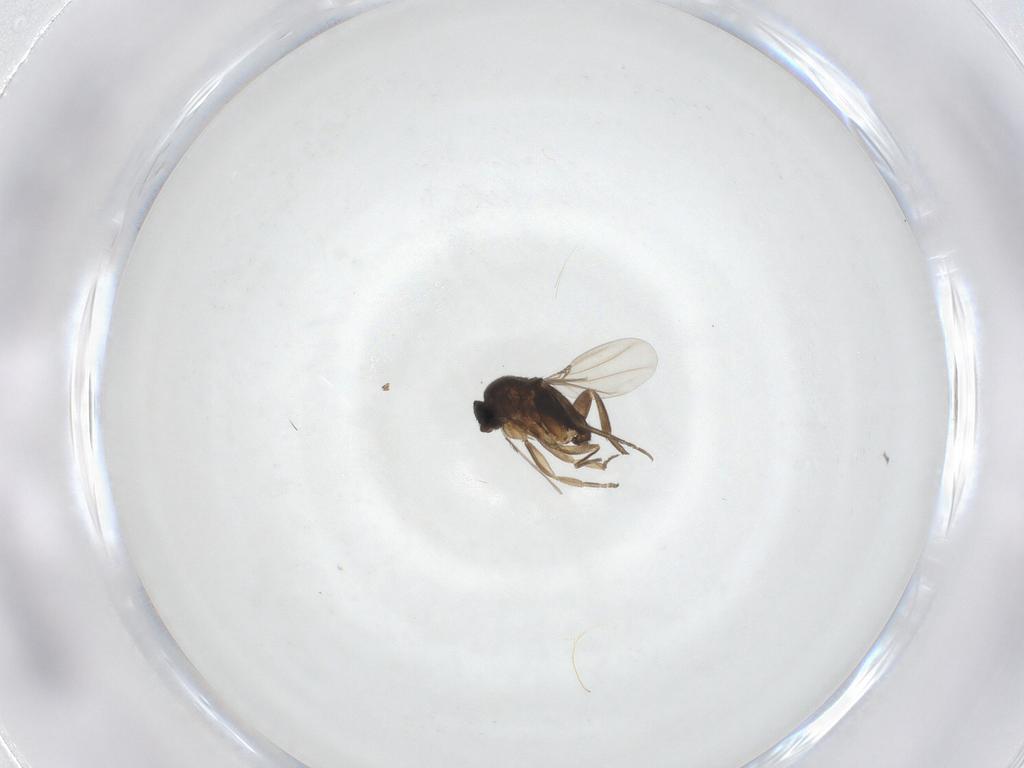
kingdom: Animalia
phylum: Arthropoda
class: Insecta
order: Diptera
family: Phoridae
